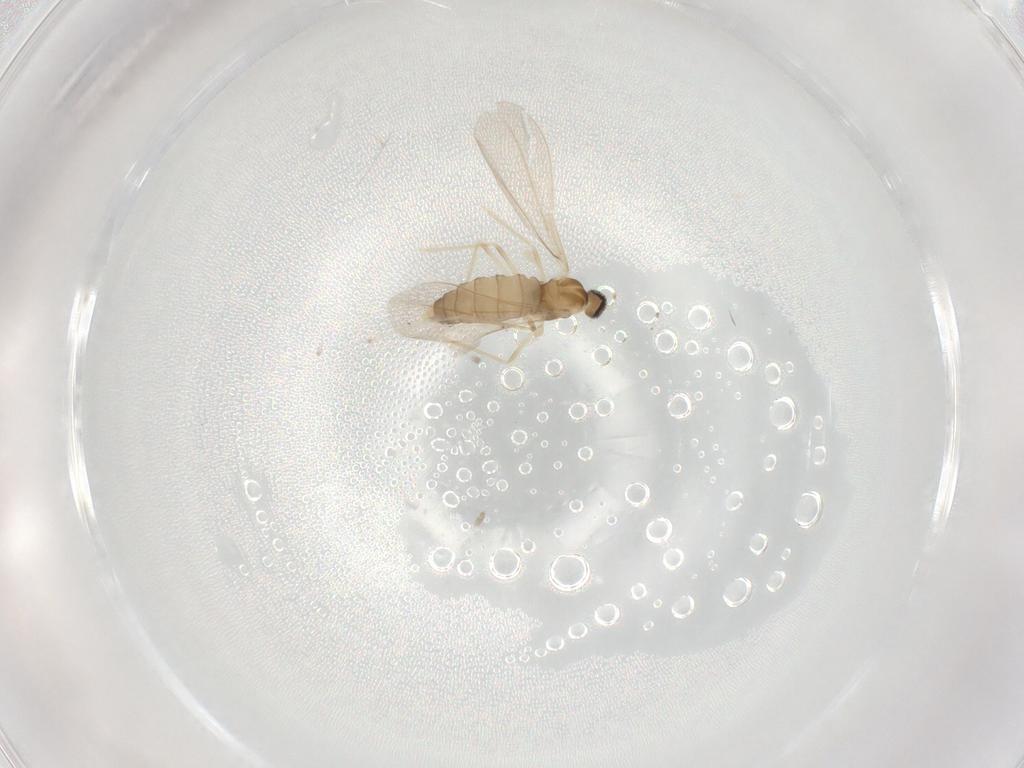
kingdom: Animalia
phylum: Arthropoda
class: Insecta
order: Diptera
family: Cecidomyiidae
